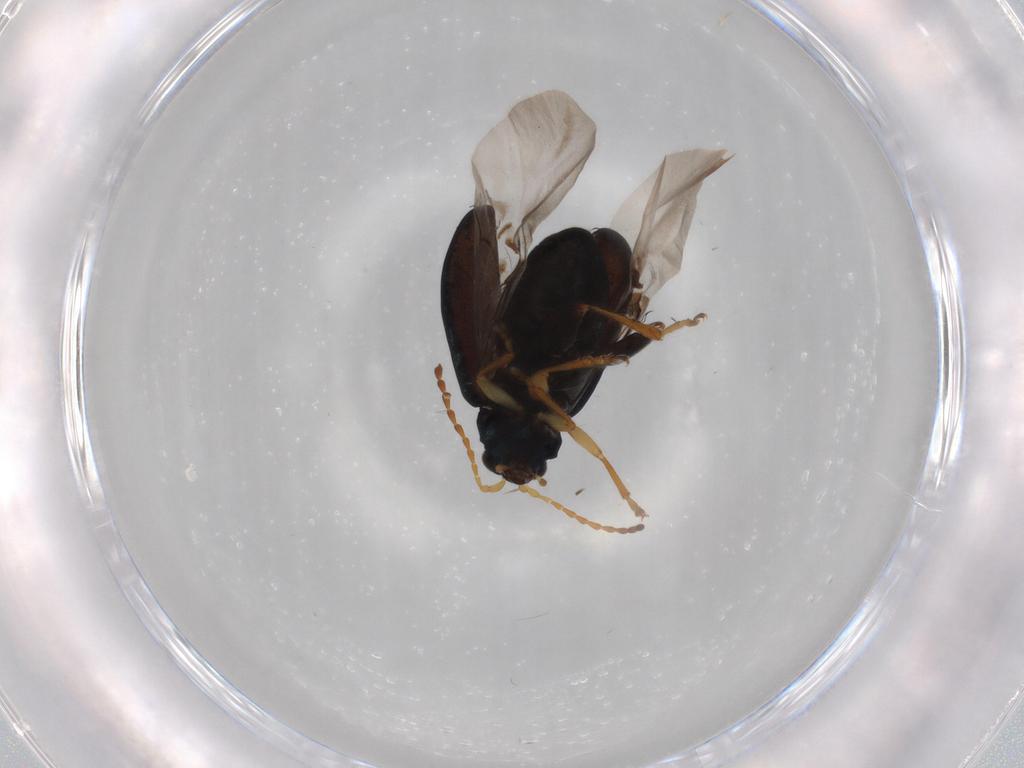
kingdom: Animalia
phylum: Arthropoda
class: Insecta
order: Coleoptera
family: Chrysomelidae
